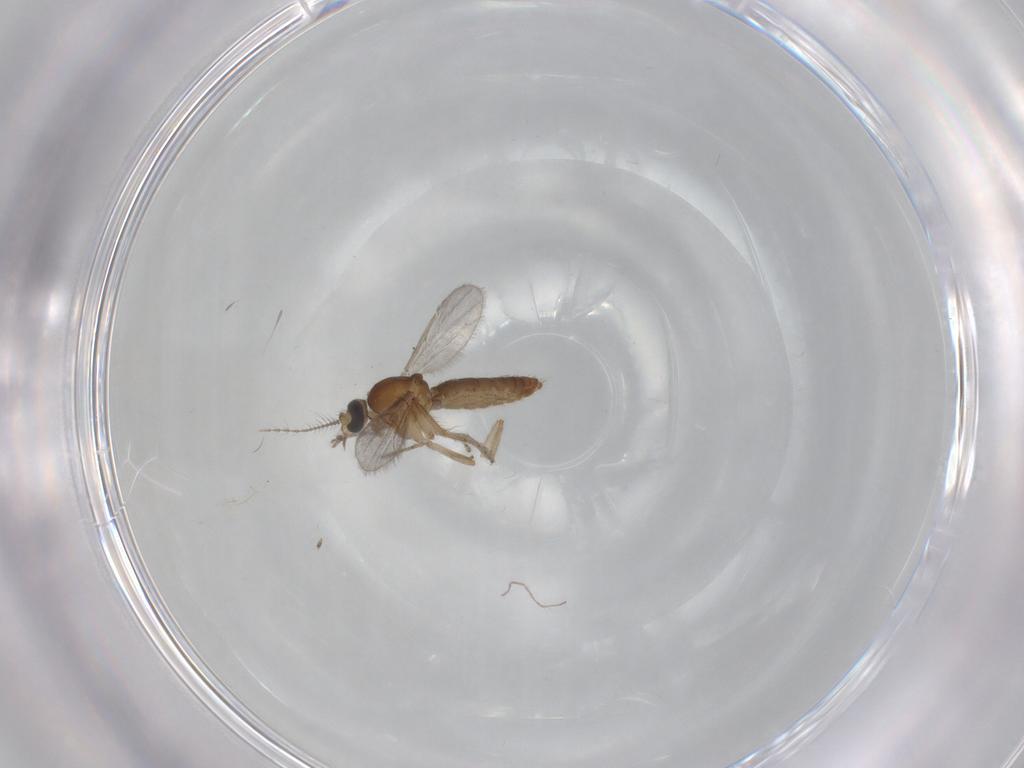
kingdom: Animalia
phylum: Arthropoda
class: Insecta
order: Diptera
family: Ceratopogonidae
